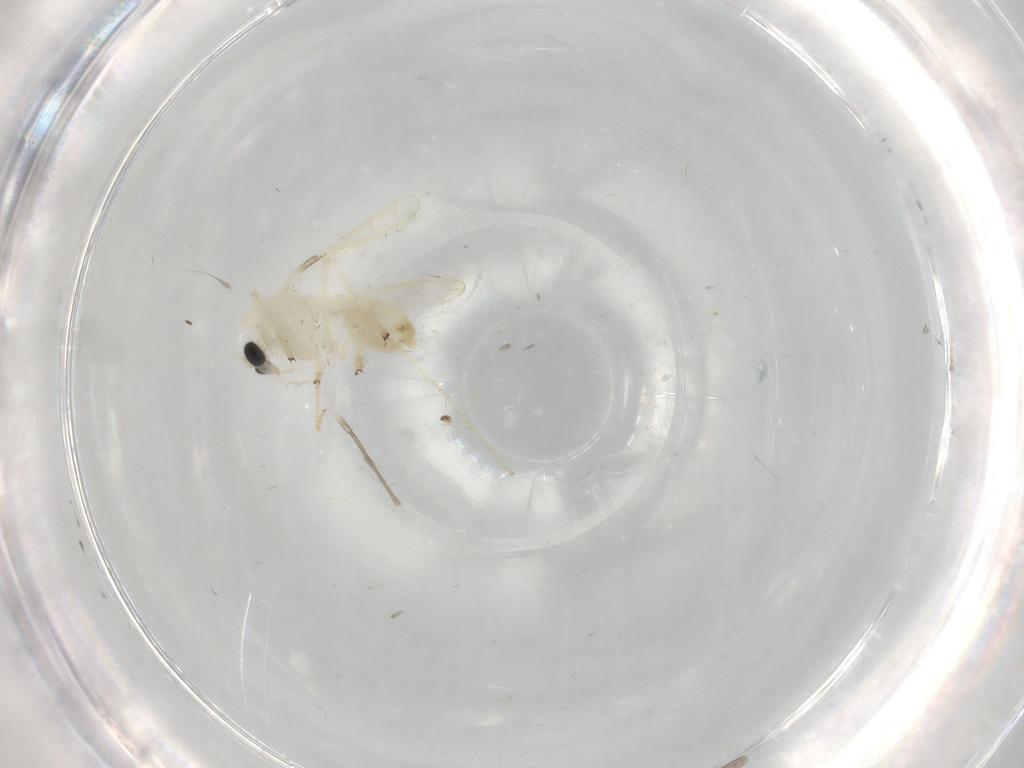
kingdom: Animalia
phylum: Arthropoda
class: Insecta
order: Diptera
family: Chironomidae
